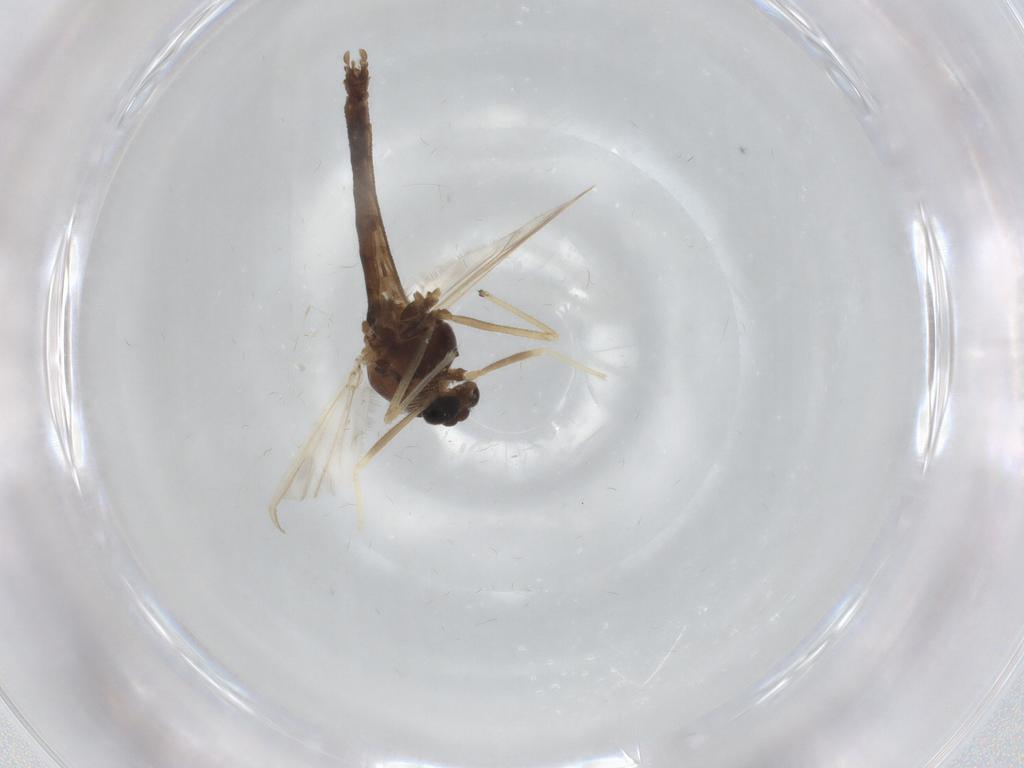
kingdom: Animalia
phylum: Arthropoda
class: Insecta
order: Diptera
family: Chironomidae
